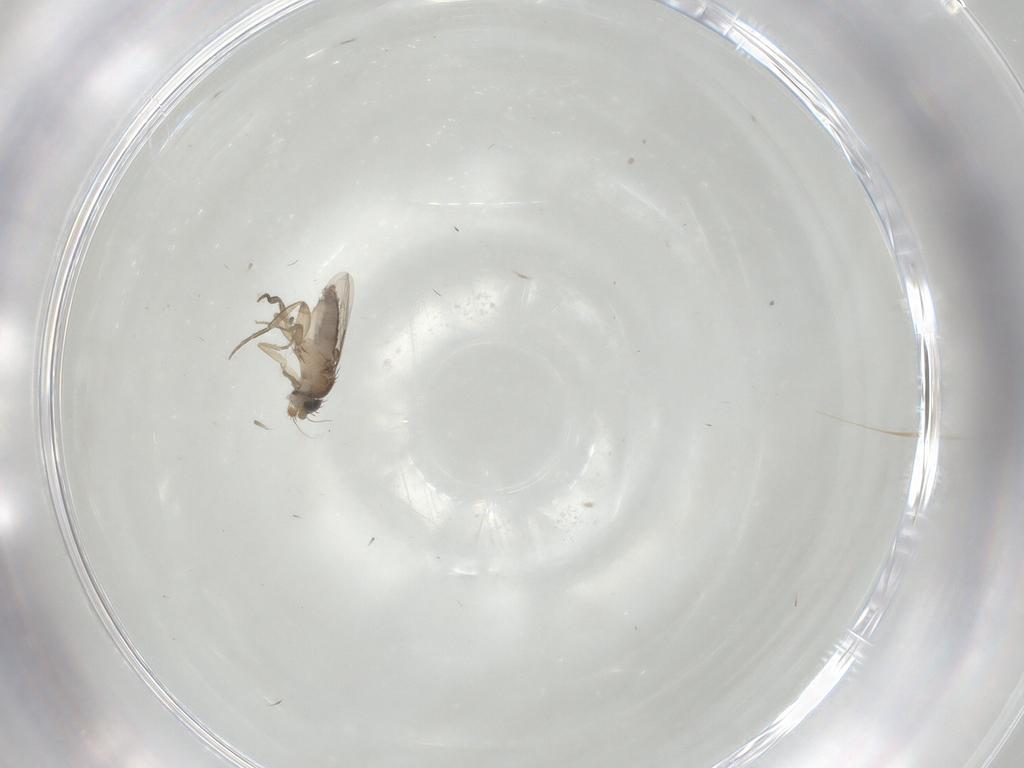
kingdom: Animalia
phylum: Arthropoda
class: Insecta
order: Diptera
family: Phoridae
